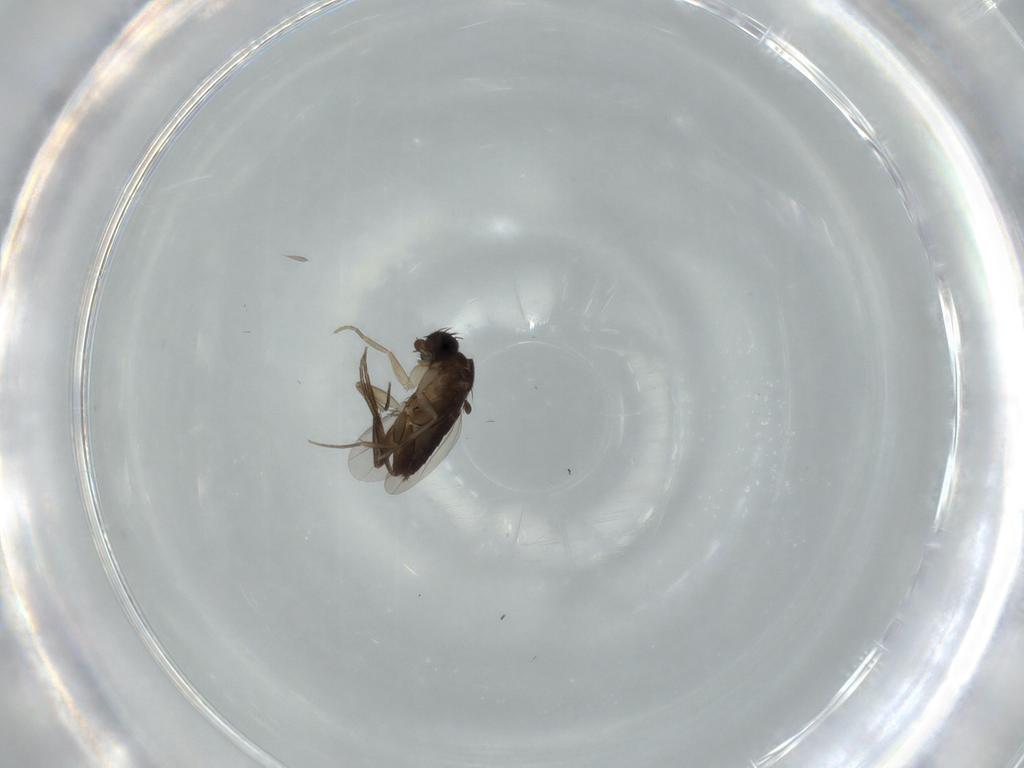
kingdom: Animalia
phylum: Arthropoda
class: Insecta
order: Diptera
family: Phoridae
